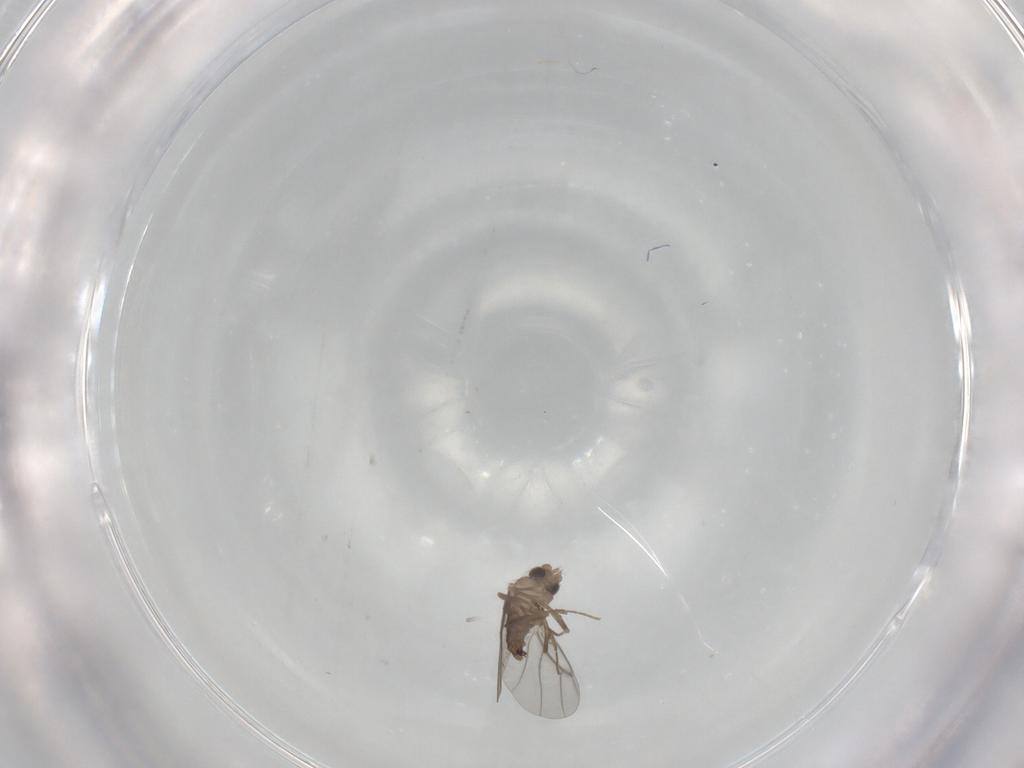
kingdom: Animalia
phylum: Arthropoda
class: Insecta
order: Diptera
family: Cecidomyiidae
